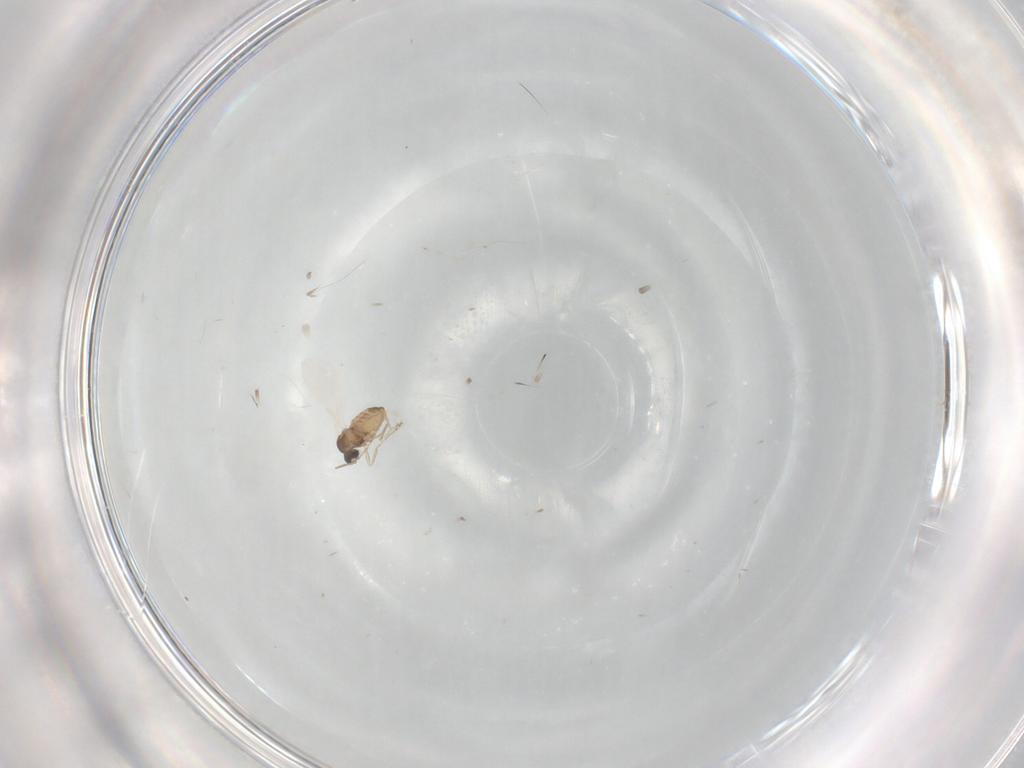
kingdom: Animalia
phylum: Arthropoda
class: Insecta
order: Diptera
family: Cecidomyiidae
